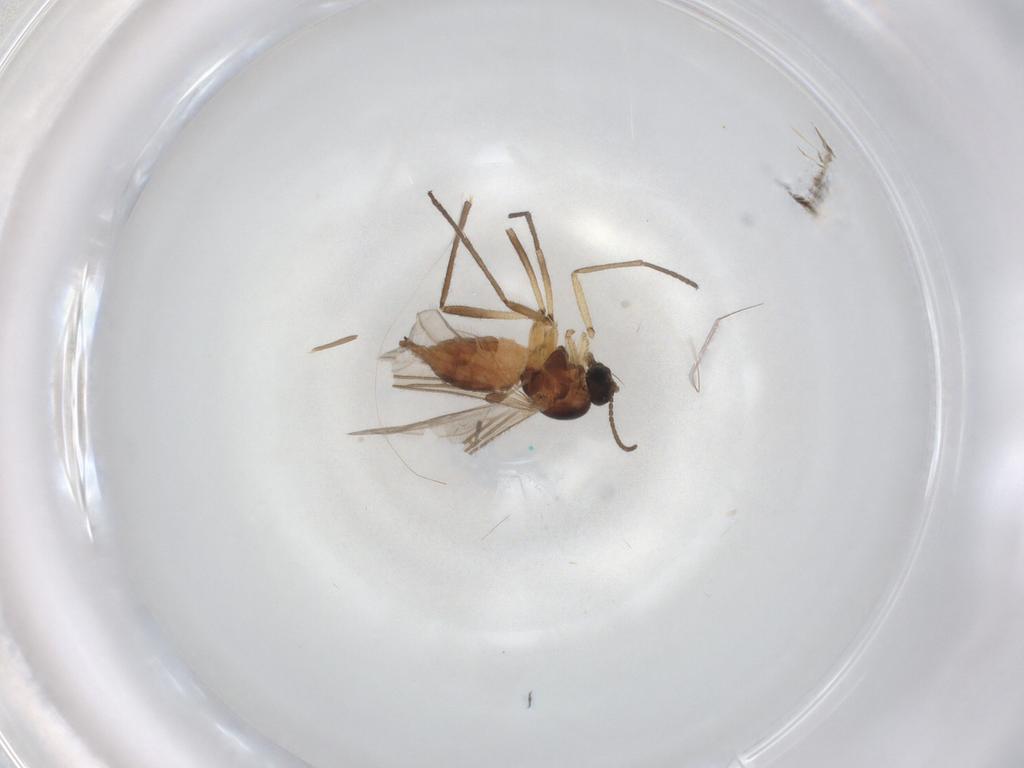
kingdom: Animalia
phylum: Arthropoda
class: Insecta
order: Diptera
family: Sciaridae
